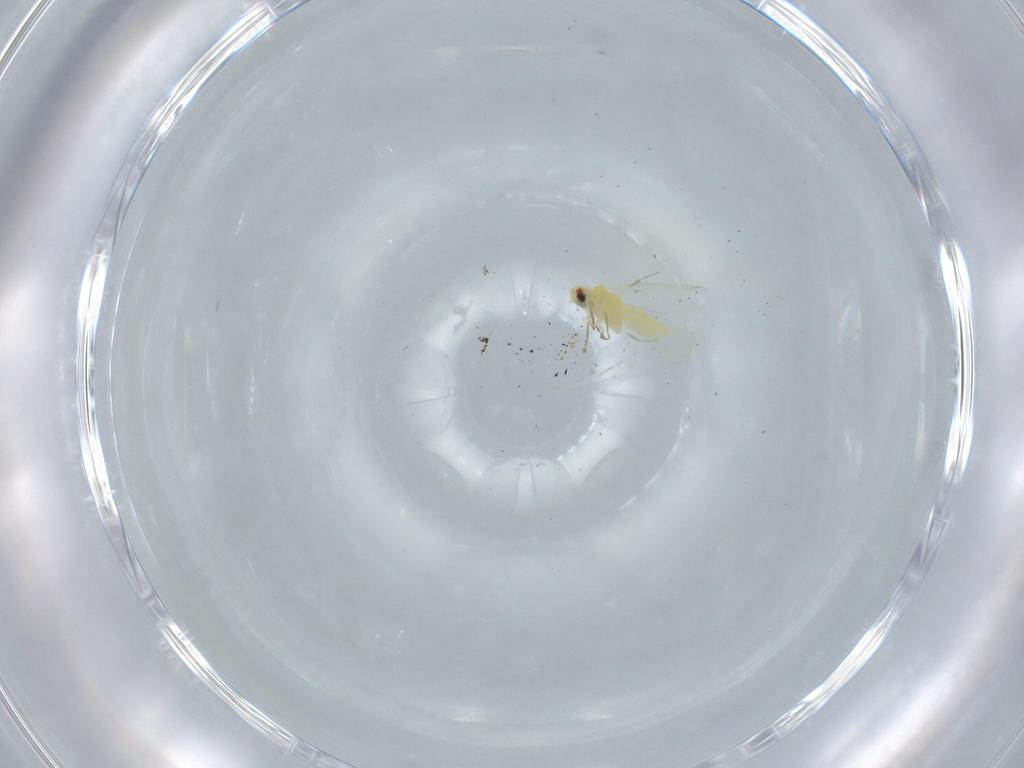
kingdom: Animalia
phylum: Arthropoda
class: Insecta
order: Hemiptera
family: Aleyrodidae
